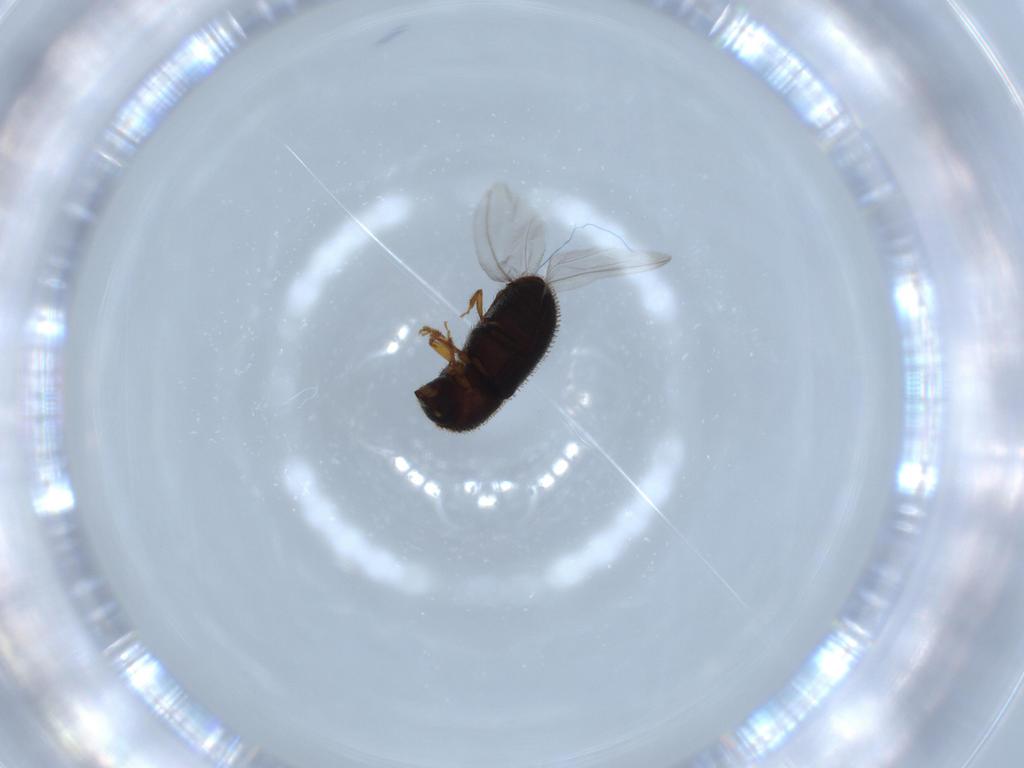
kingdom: Animalia
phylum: Arthropoda
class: Insecta
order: Coleoptera
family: Curculionidae
